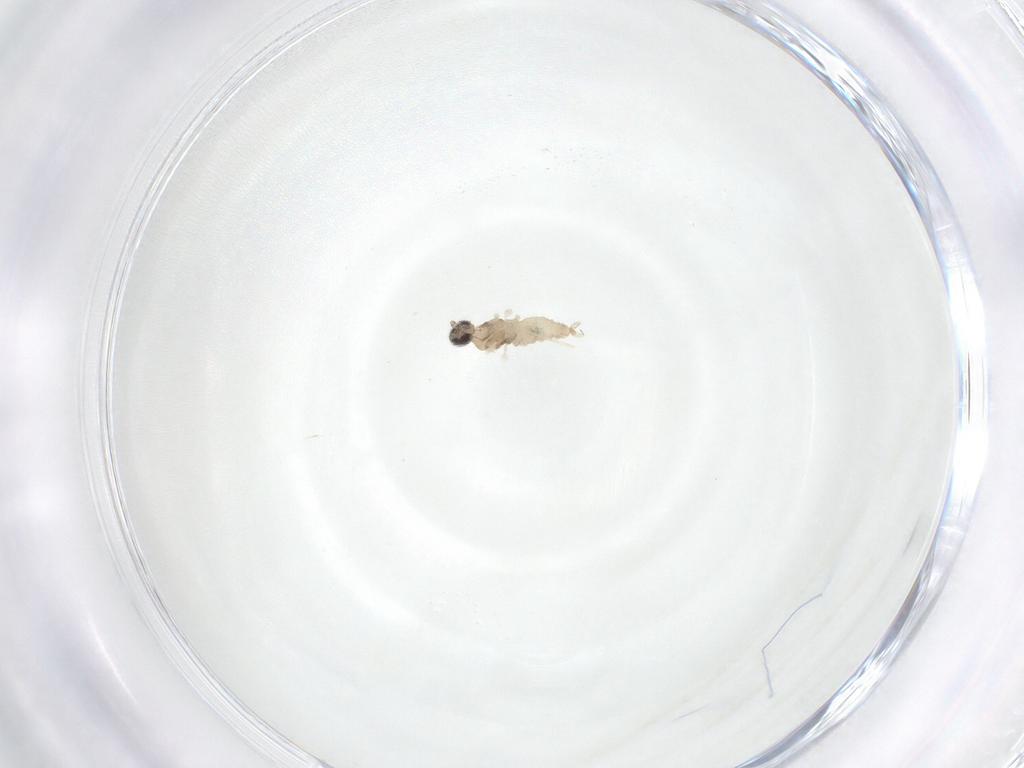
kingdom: Animalia
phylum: Arthropoda
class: Insecta
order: Diptera
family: Cecidomyiidae
